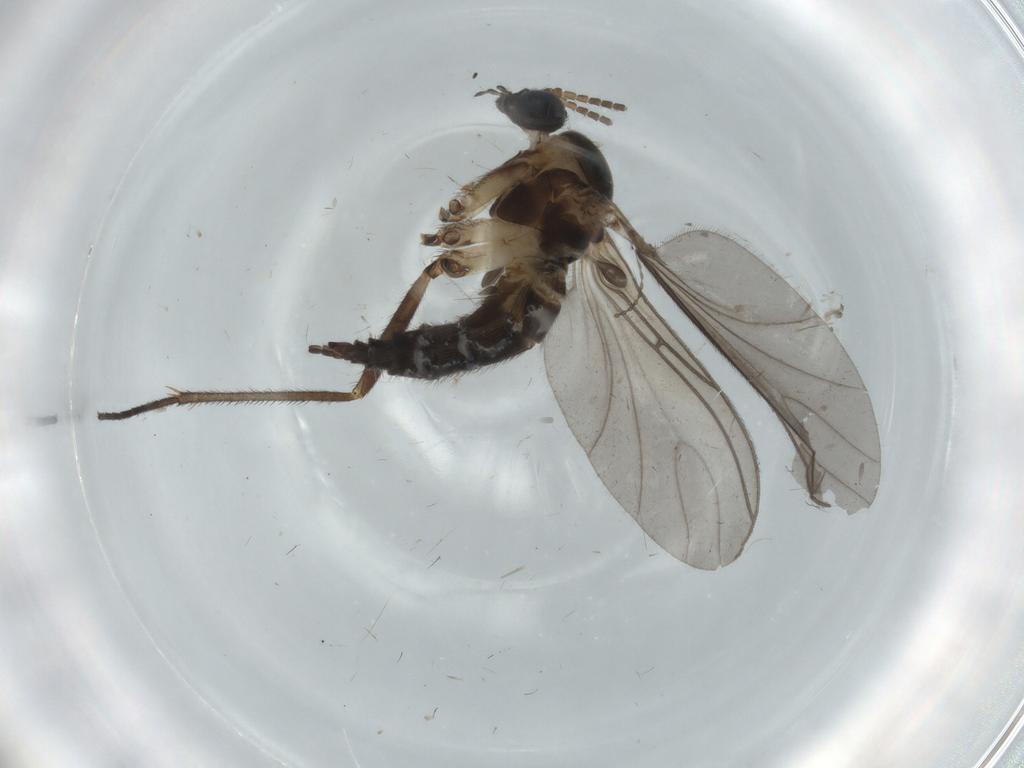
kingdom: Animalia
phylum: Arthropoda
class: Insecta
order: Diptera
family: Sciaridae
